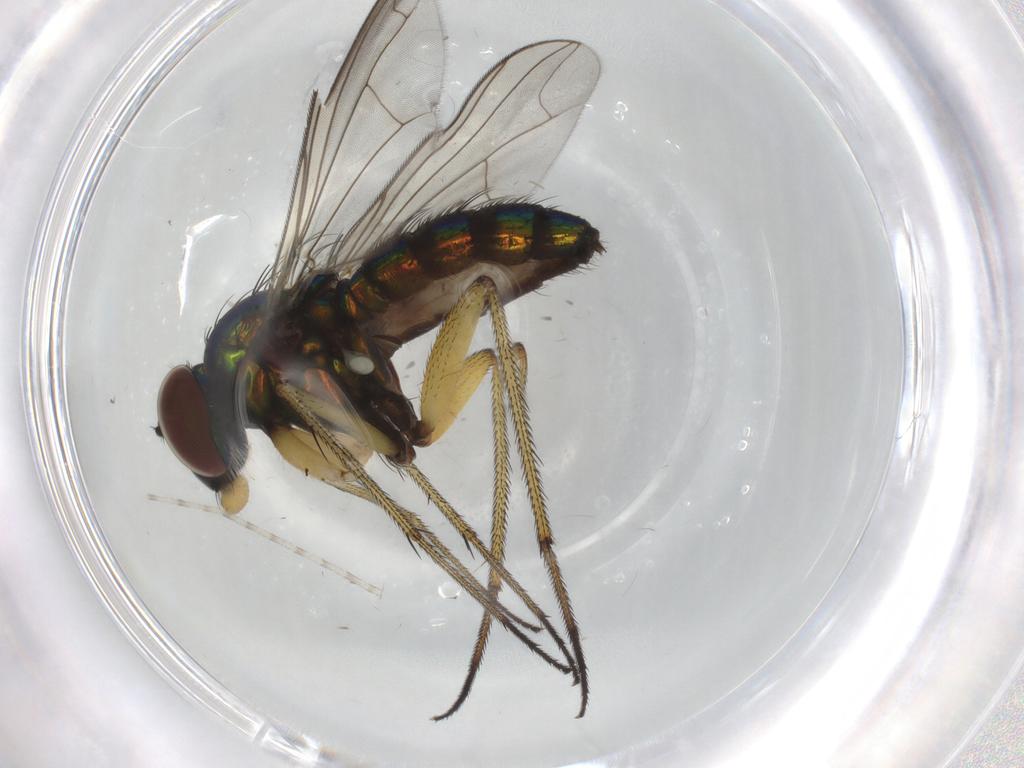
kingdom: Animalia
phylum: Arthropoda
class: Insecta
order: Diptera
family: Dolichopodidae
